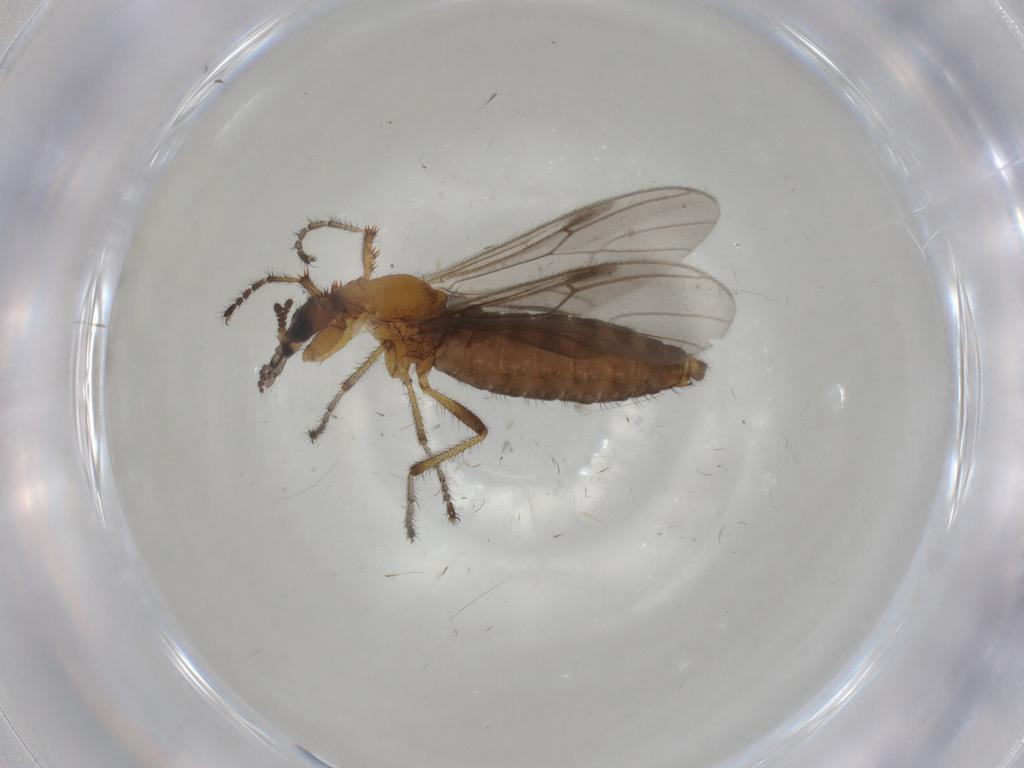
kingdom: Animalia
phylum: Arthropoda
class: Insecta
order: Diptera
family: Bibionidae
